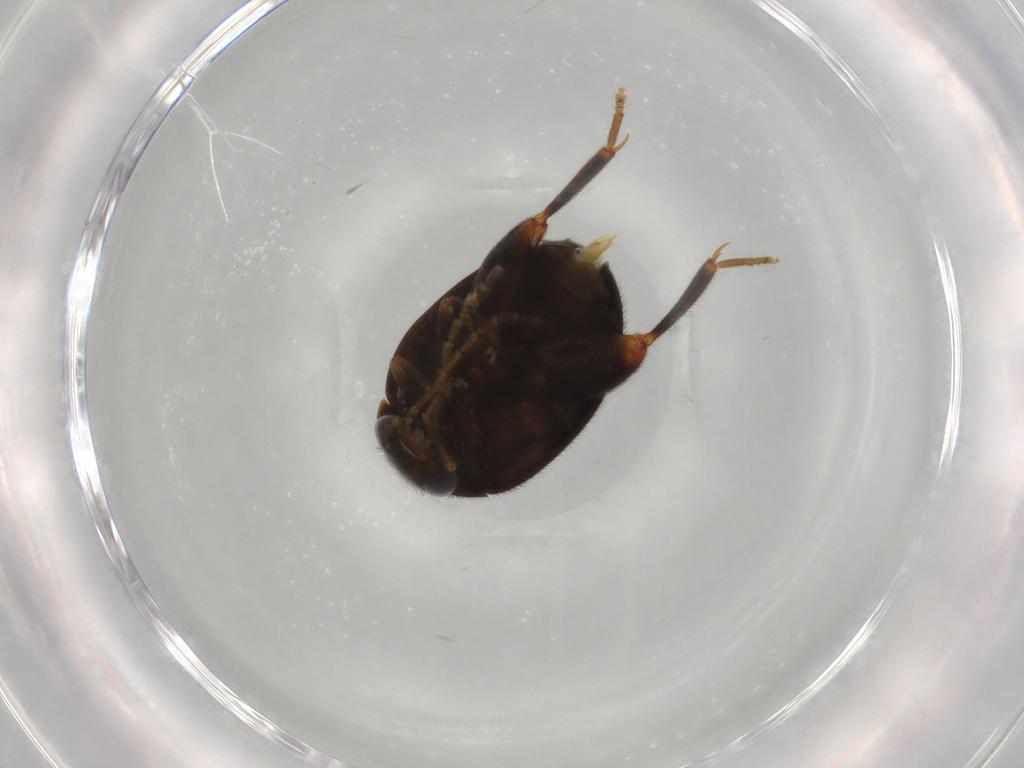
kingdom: Animalia
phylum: Arthropoda
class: Insecta
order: Coleoptera
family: Scirtidae
